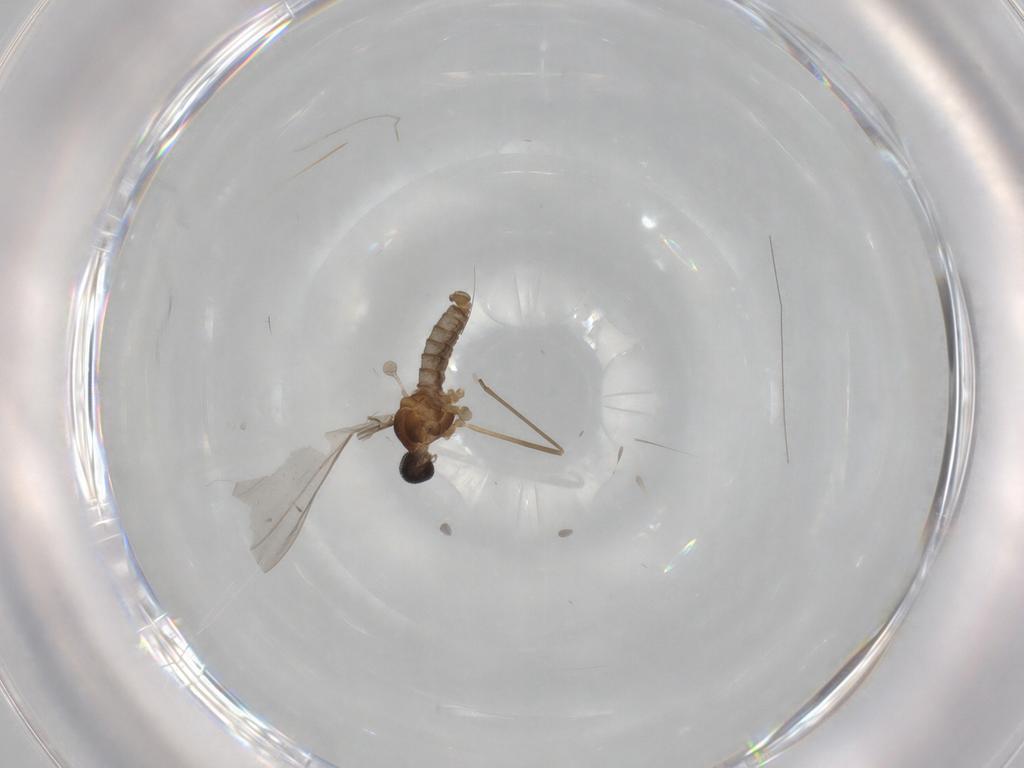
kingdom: Animalia
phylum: Arthropoda
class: Insecta
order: Diptera
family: Cecidomyiidae
